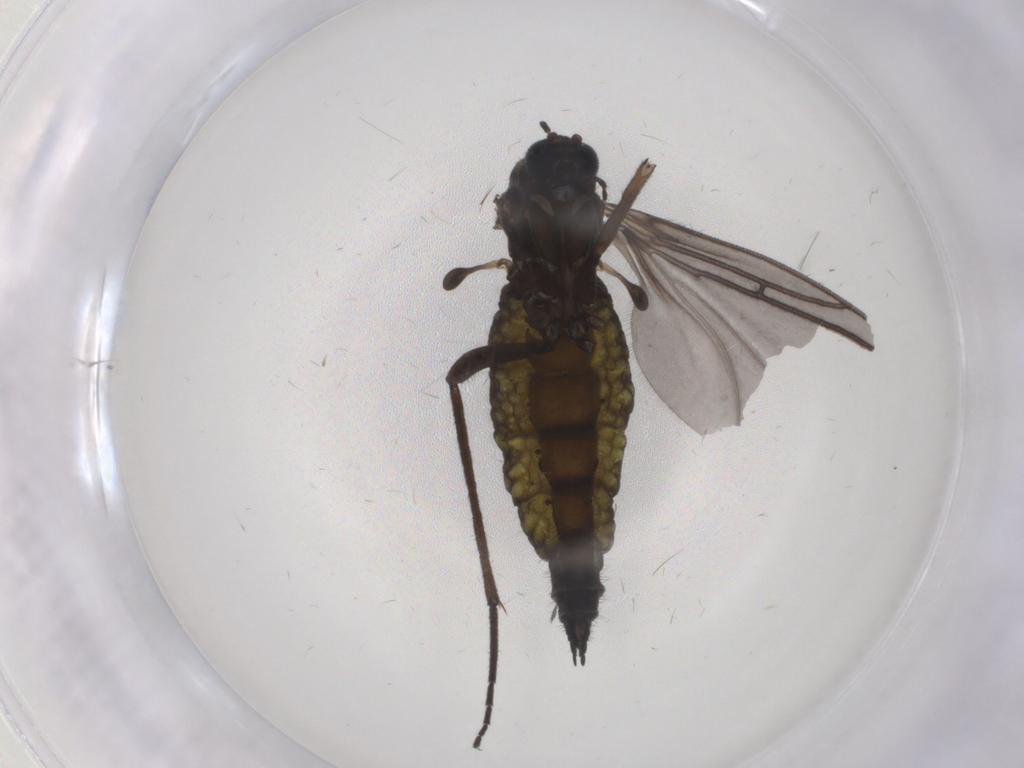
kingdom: Animalia
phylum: Arthropoda
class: Insecta
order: Diptera
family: Sciaridae
